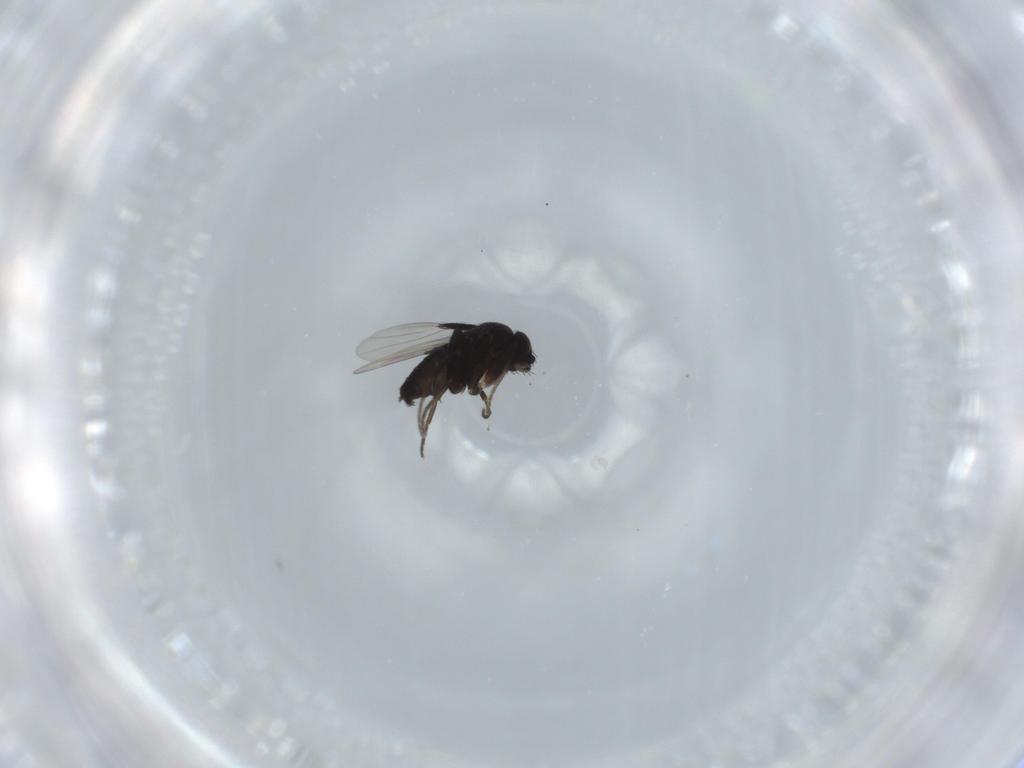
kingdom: Animalia
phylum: Arthropoda
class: Insecta
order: Diptera
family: Phoridae
